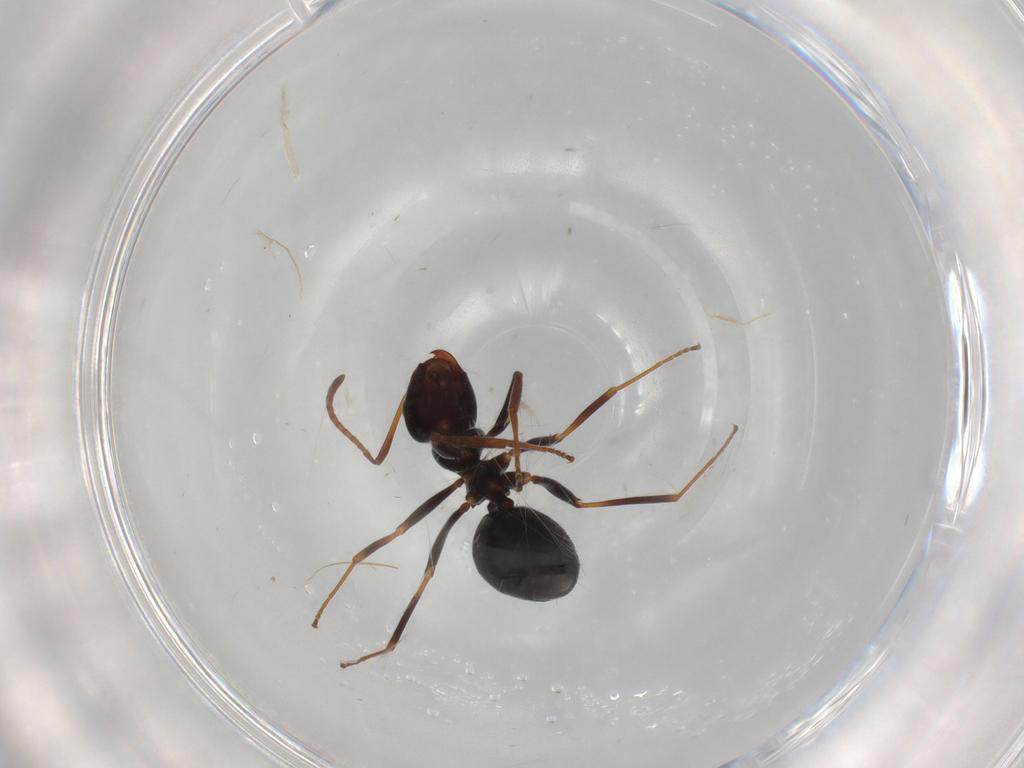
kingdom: Animalia
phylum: Arthropoda
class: Insecta
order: Hymenoptera
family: Formicidae
